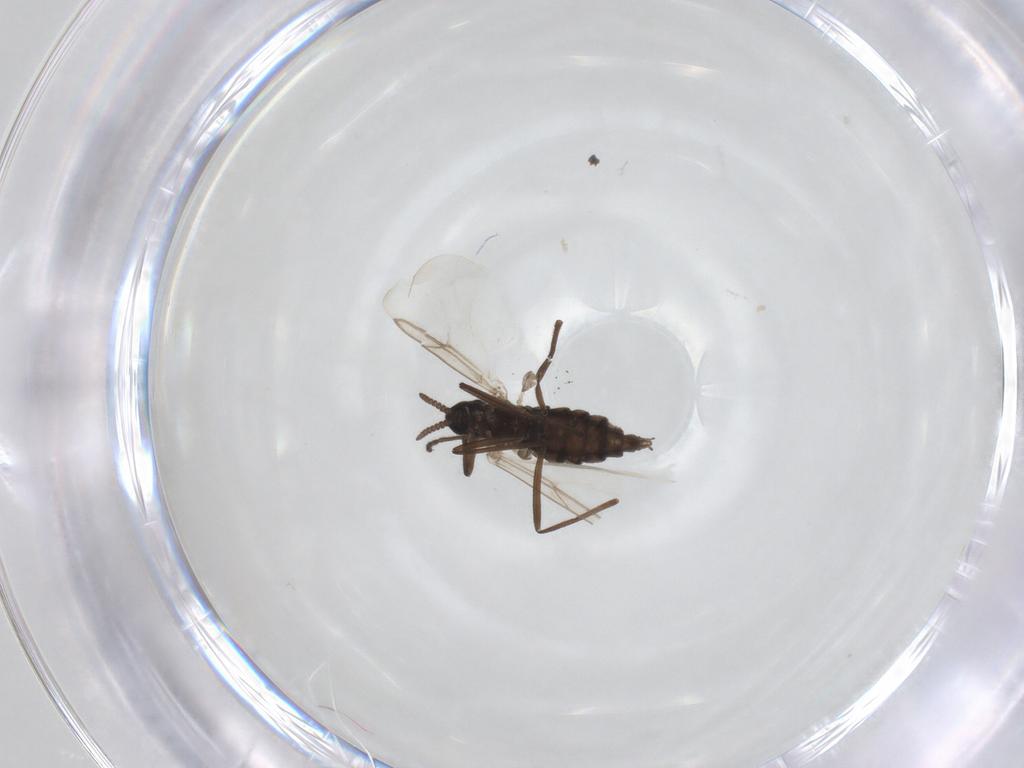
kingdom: Animalia
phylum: Arthropoda
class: Insecta
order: Diptera
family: Cecidomyiidae
